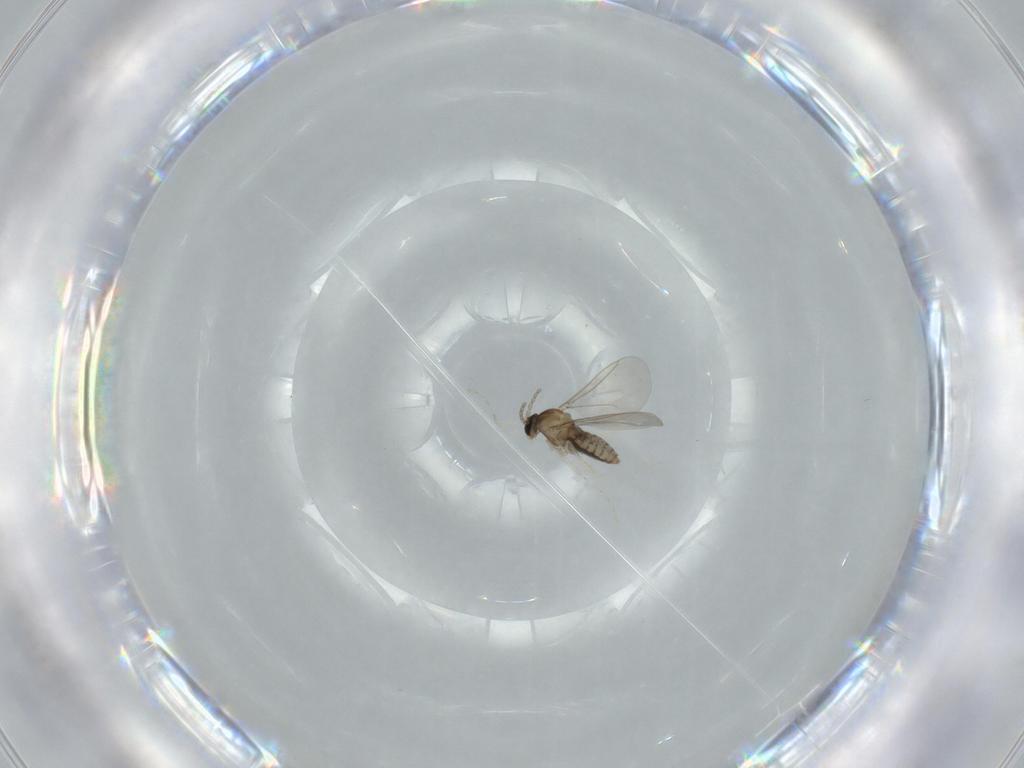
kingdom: Animalia
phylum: Arthropoda
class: Insecta
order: Diptera
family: Cecidomyiidae
